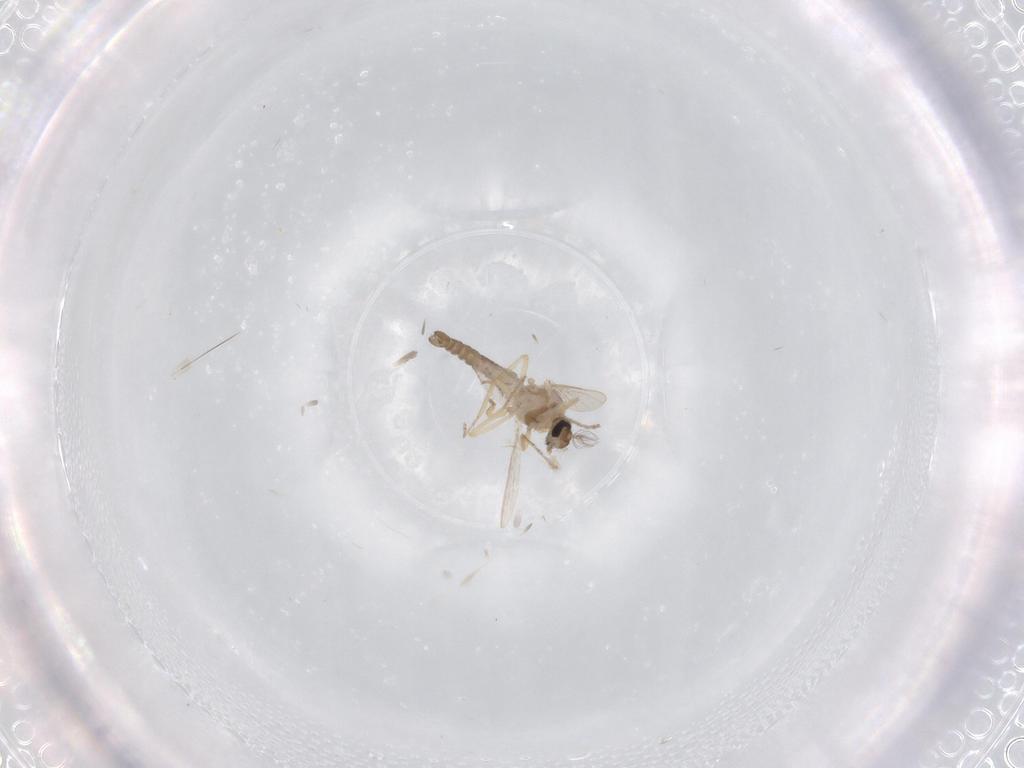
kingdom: Animalia
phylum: Arthropoda
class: Insecta
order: Diptera
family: Ceratopogonidae
